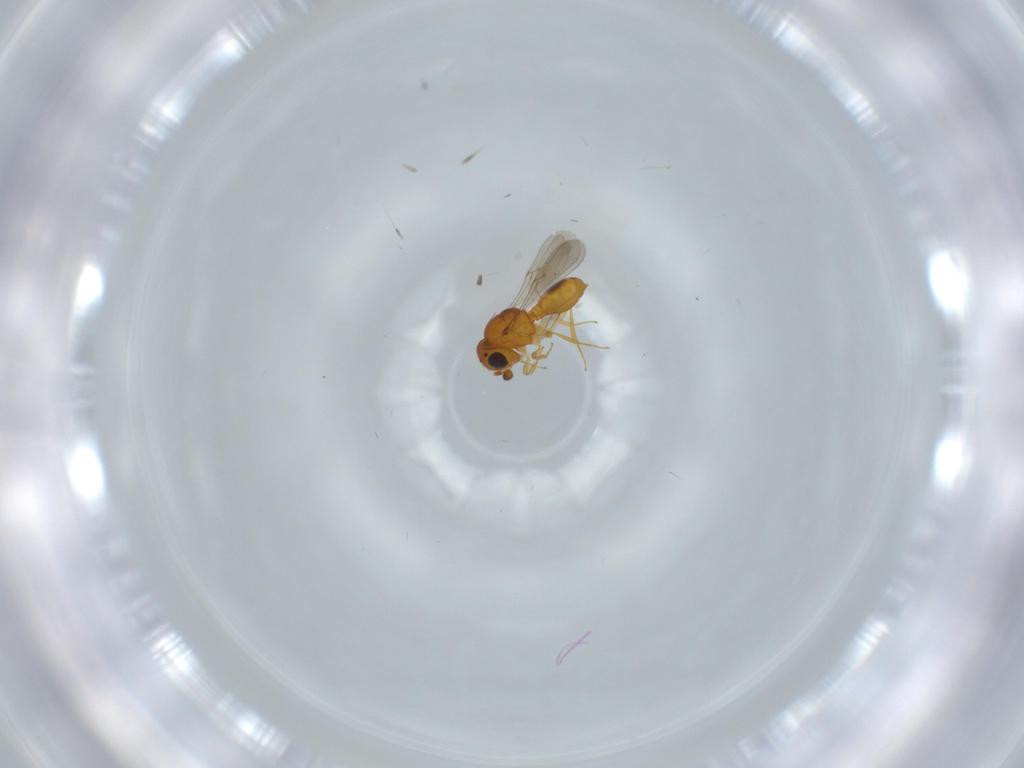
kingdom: Animalia
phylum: Arthropoda
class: Insecta
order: Hymenoptera
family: Scelionidae
